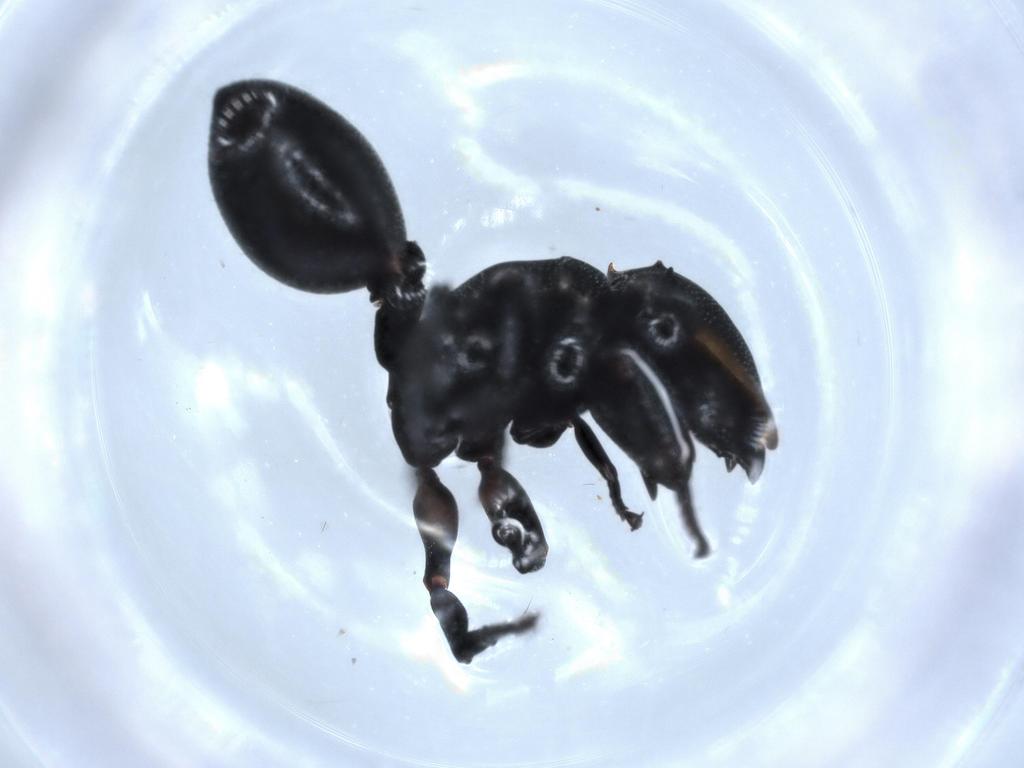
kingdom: Animalia
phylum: Arthropoda
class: Insecta
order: Hymenoptera
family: Formicidae
